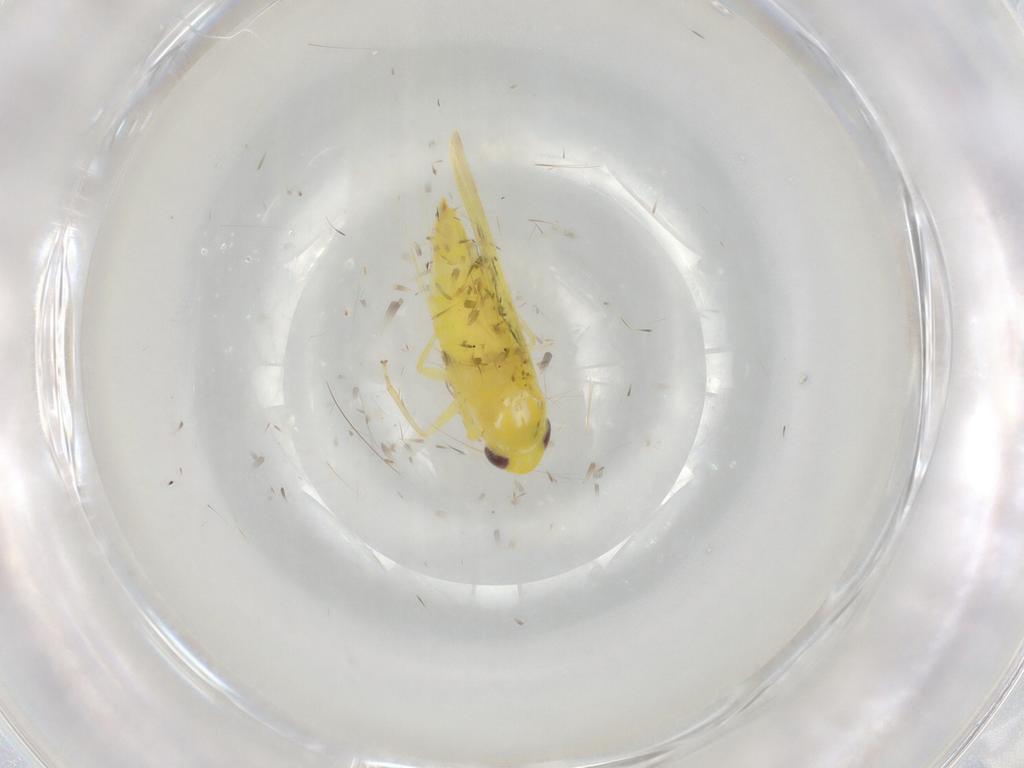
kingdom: Animalia
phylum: Arthropoda
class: Insecta
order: Hemiptera
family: Cicadellidae
